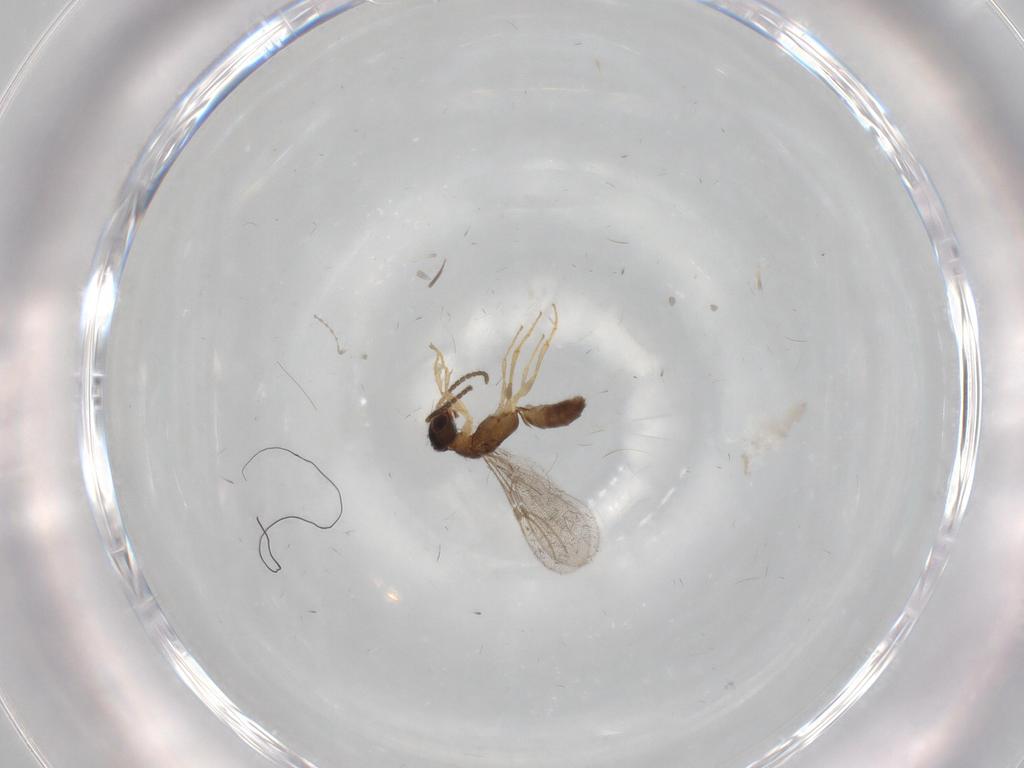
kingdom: Animalia
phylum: Arthropoda
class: Insecta
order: Hymenoptera
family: Bethylidae
